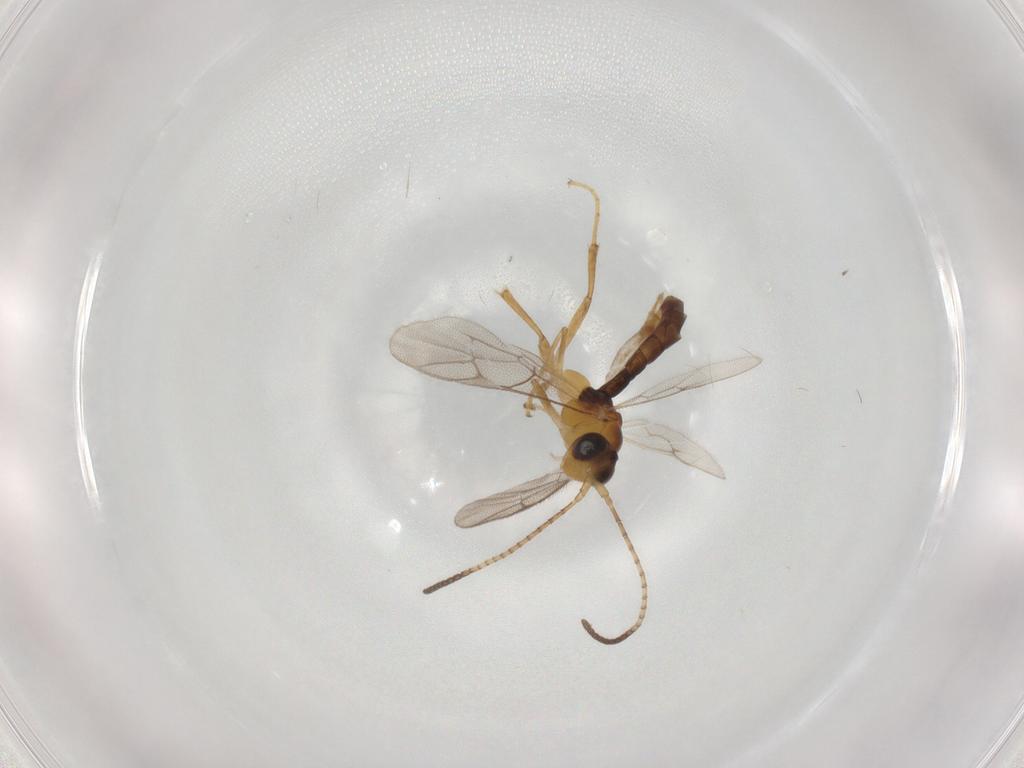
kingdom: Animalia
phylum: Arthropoda
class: Insecta
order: Hymenoptera
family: Ichneumonidae
